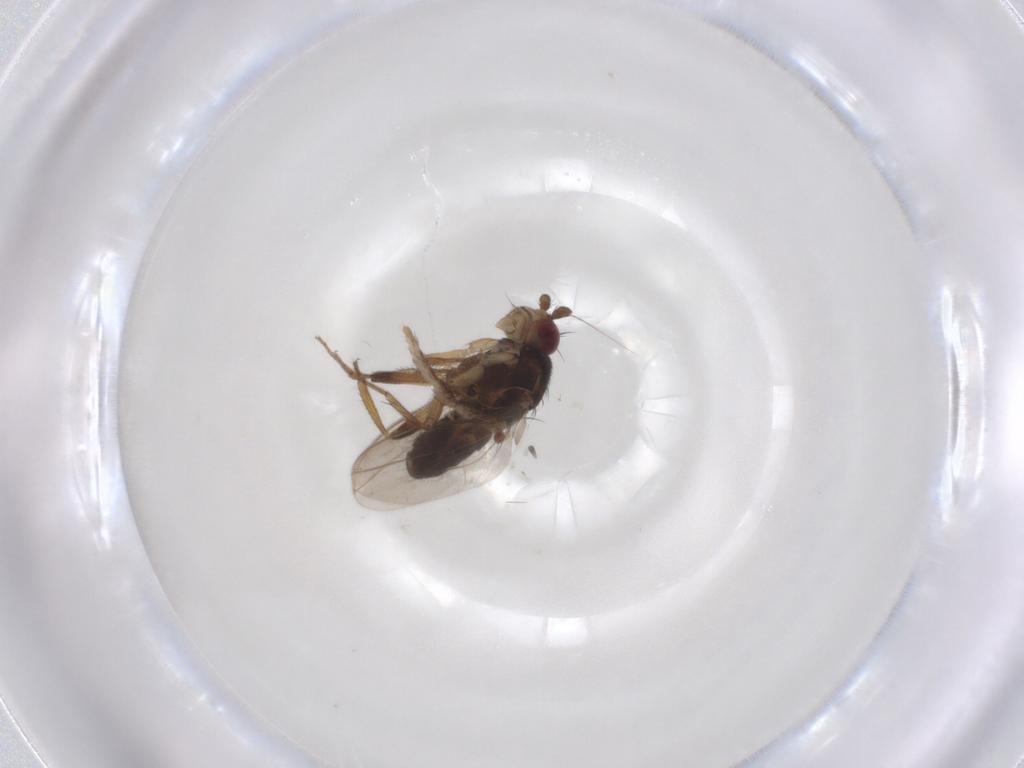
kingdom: Animalia
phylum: Arthropoda
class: Insecta
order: Diptera
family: Sphaeroceridae
